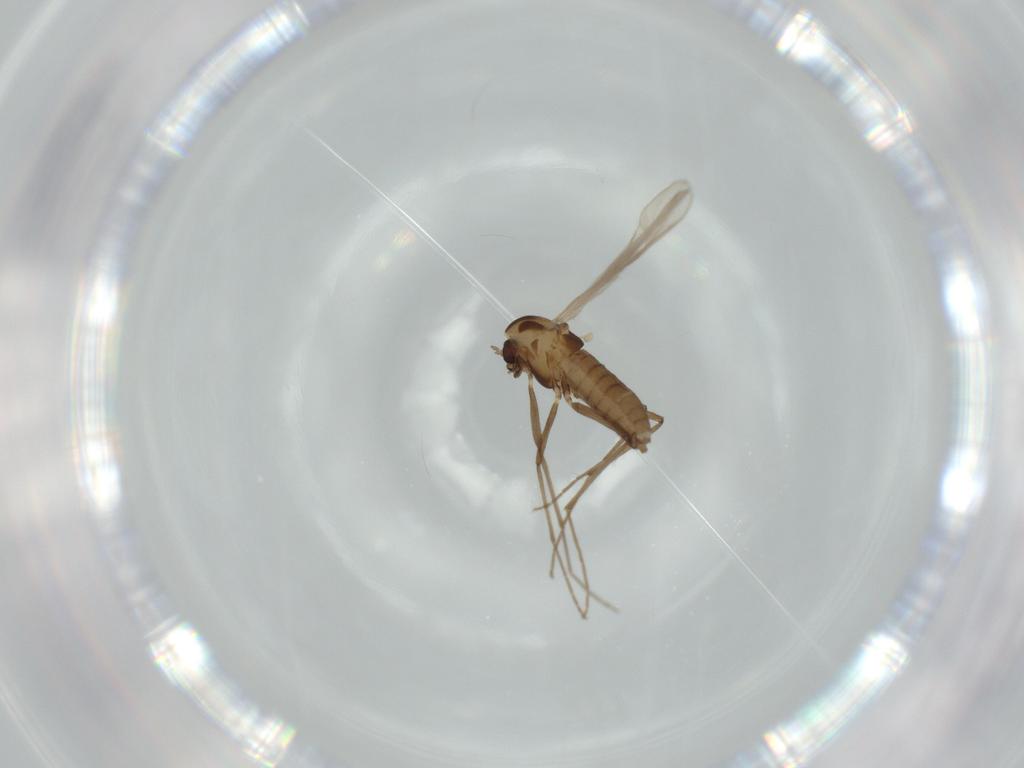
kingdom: Animalia
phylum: Arthropoda
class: Insecta
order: Diptera
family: Chironomidae
